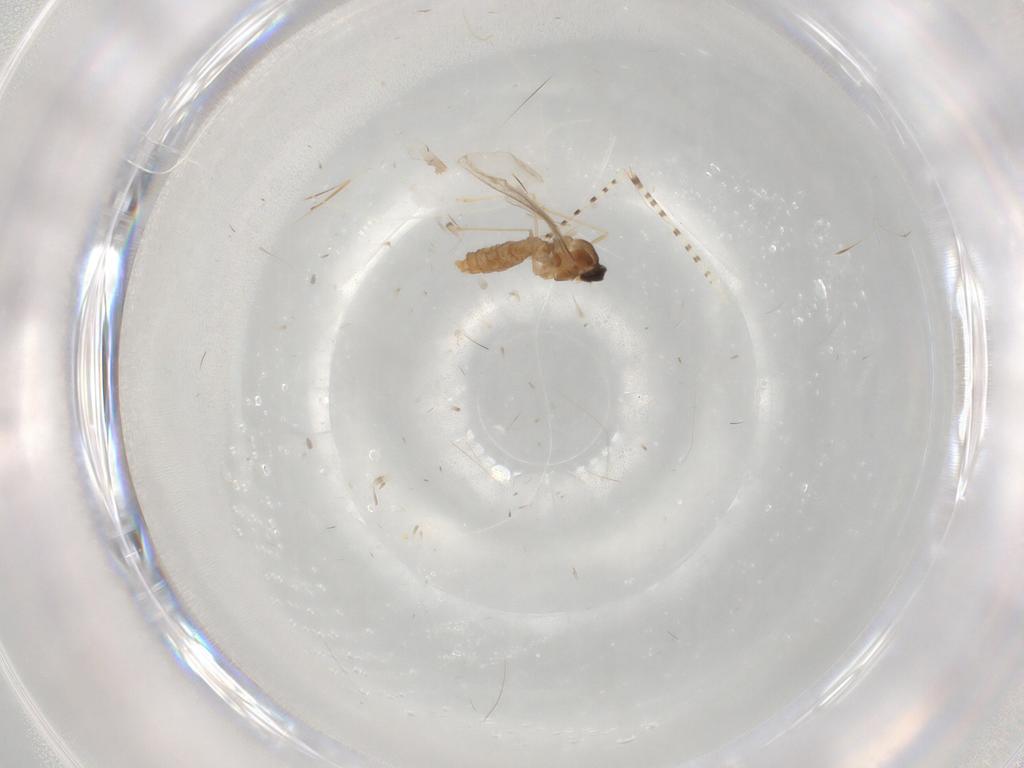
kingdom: Animalia
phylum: Arthropoda
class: Insecta
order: Diptera
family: Cecidomyiidae
